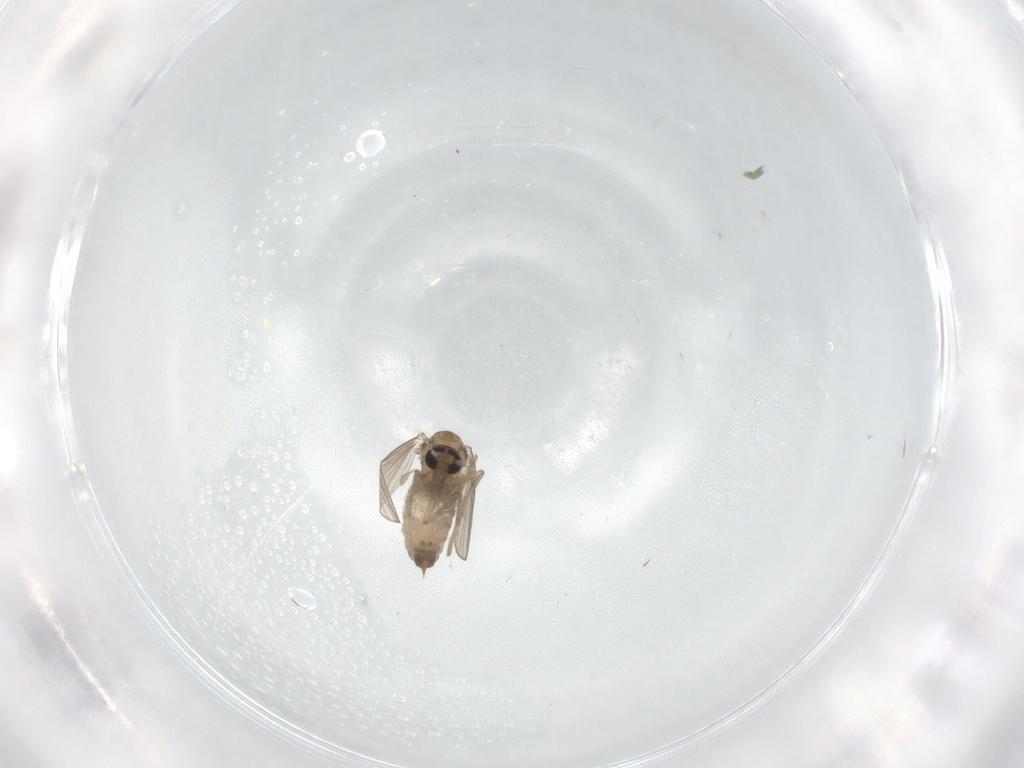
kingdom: Animalia
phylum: Arthropoda
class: Insecta
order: Diptera
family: Psychodidae
